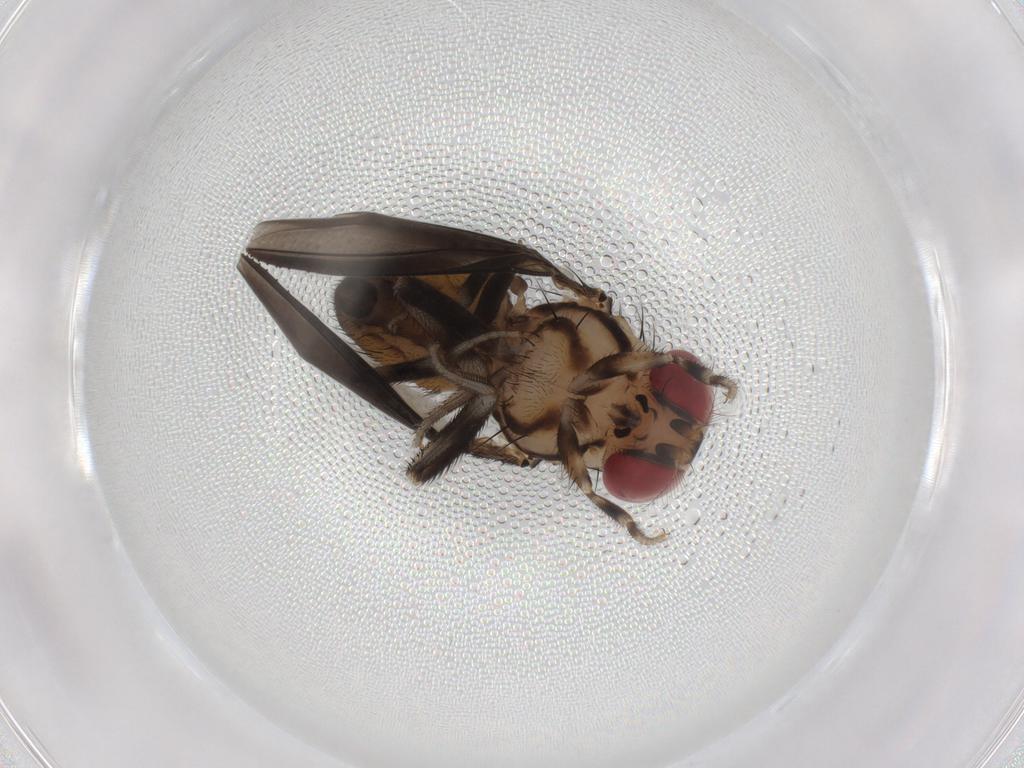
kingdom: Animalia
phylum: Arthropoda
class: Insecta
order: Diptera
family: Drosophilidae
